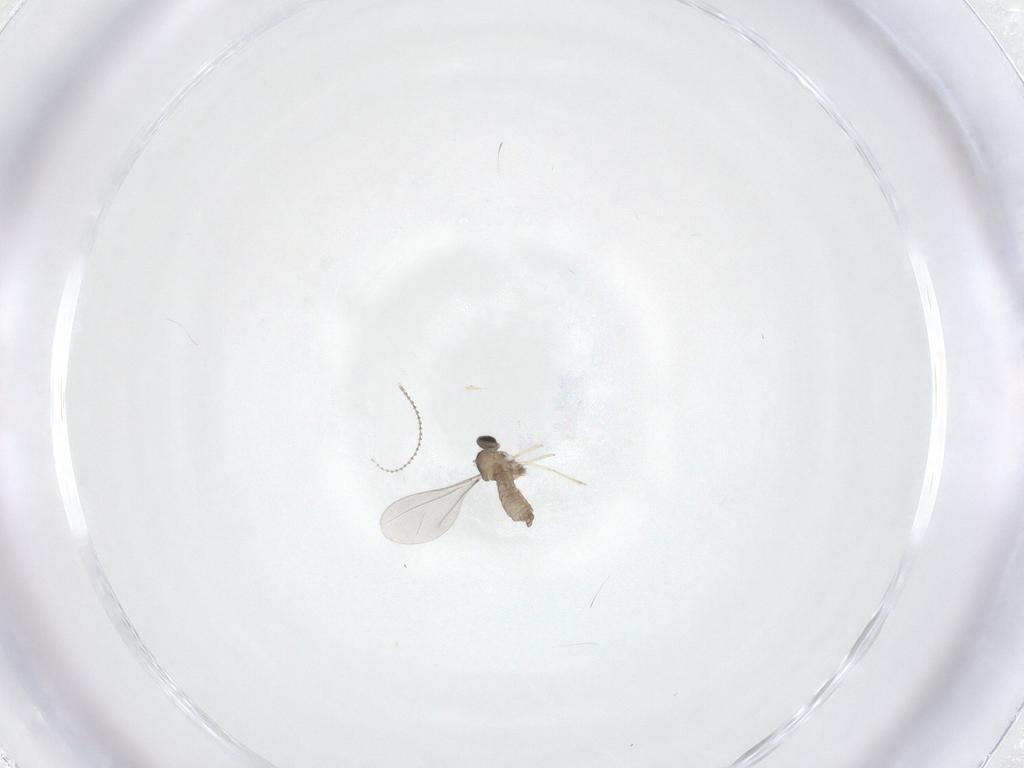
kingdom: Animalia
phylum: Arthropoda
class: Insecta
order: Diptera
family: Cecidomyiidae
